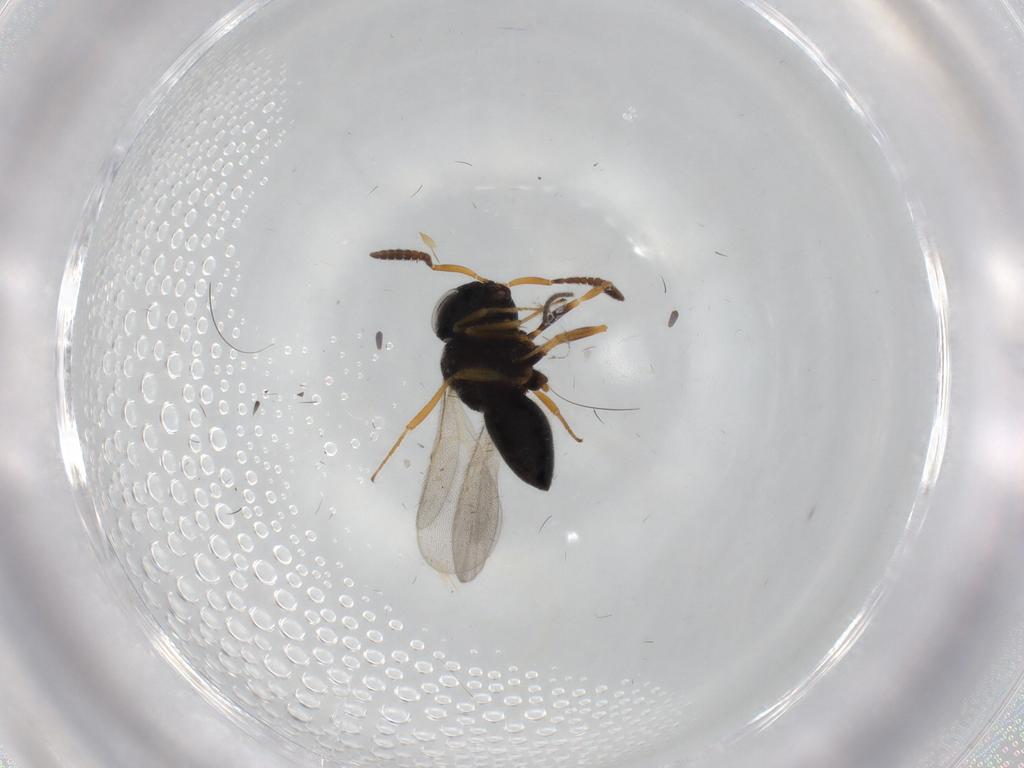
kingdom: Animalia
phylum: Arthropoda
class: Insecta
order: Hymenoptera
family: Scelionidae
